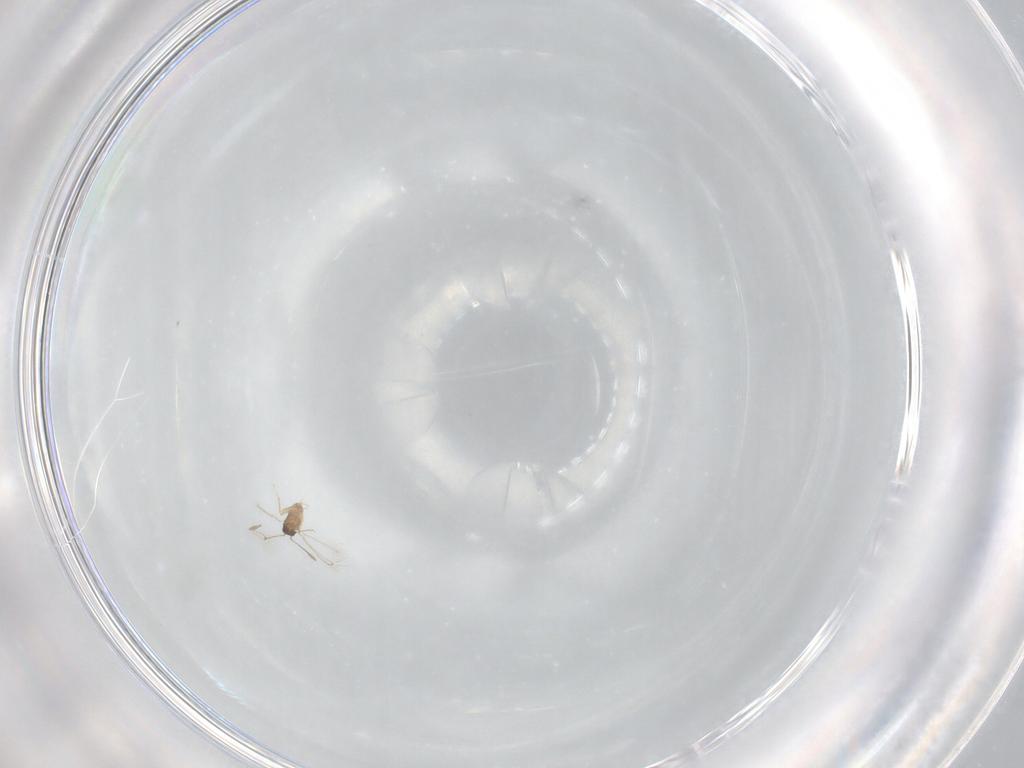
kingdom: Animalia
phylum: Arthropoda
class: Insecta
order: Hymenoptera
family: Mymaridae
